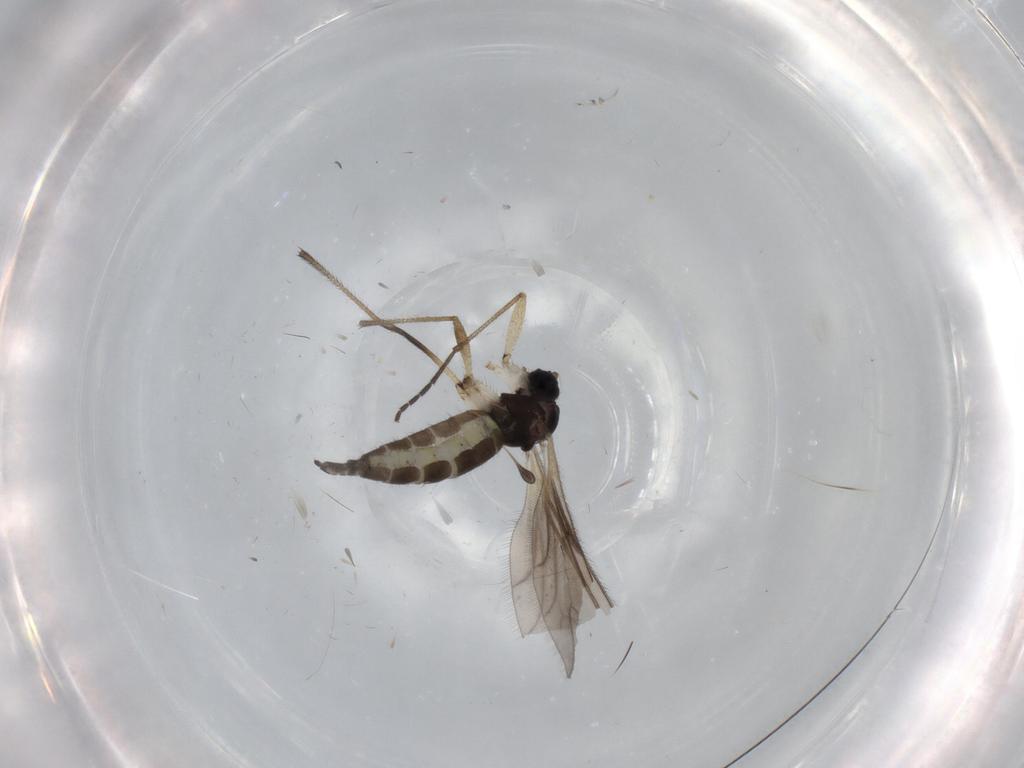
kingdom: Animalia
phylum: Arthropoda
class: Insecta
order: Diptera
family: Sciaridae
